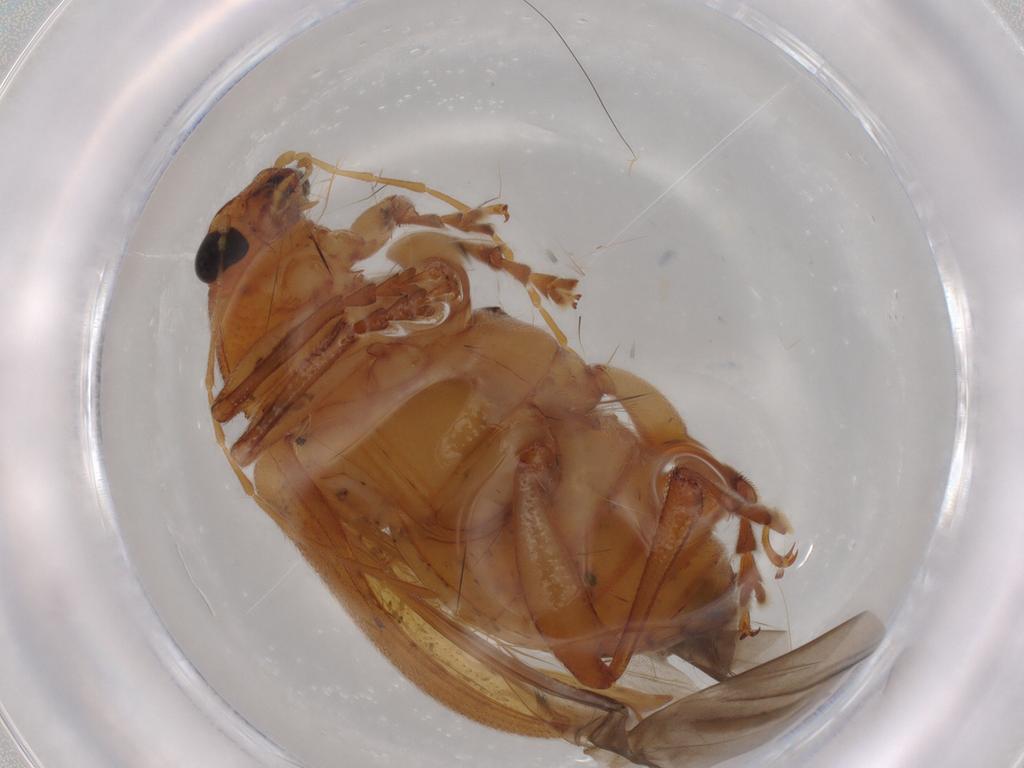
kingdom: Animalia
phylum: Arthropoda
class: Insecta
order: Coleoptera
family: Chrysomelidae
